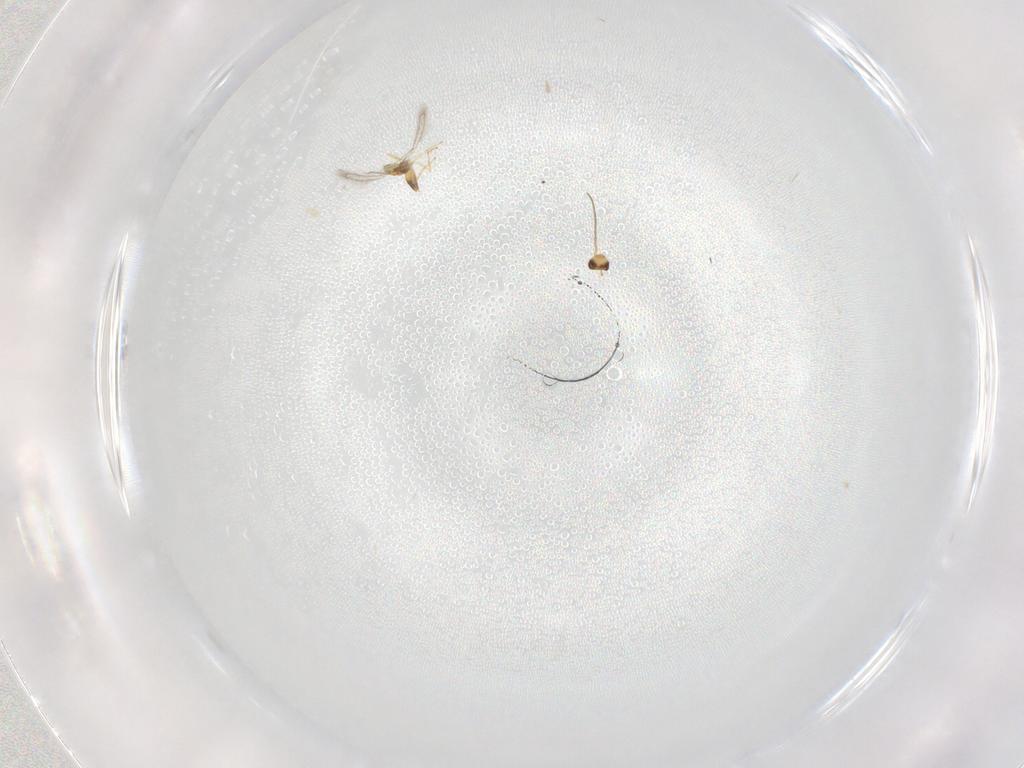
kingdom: Animalia
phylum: Arthropoda
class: Insecta
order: Hymenoptera
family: Mymaridae
